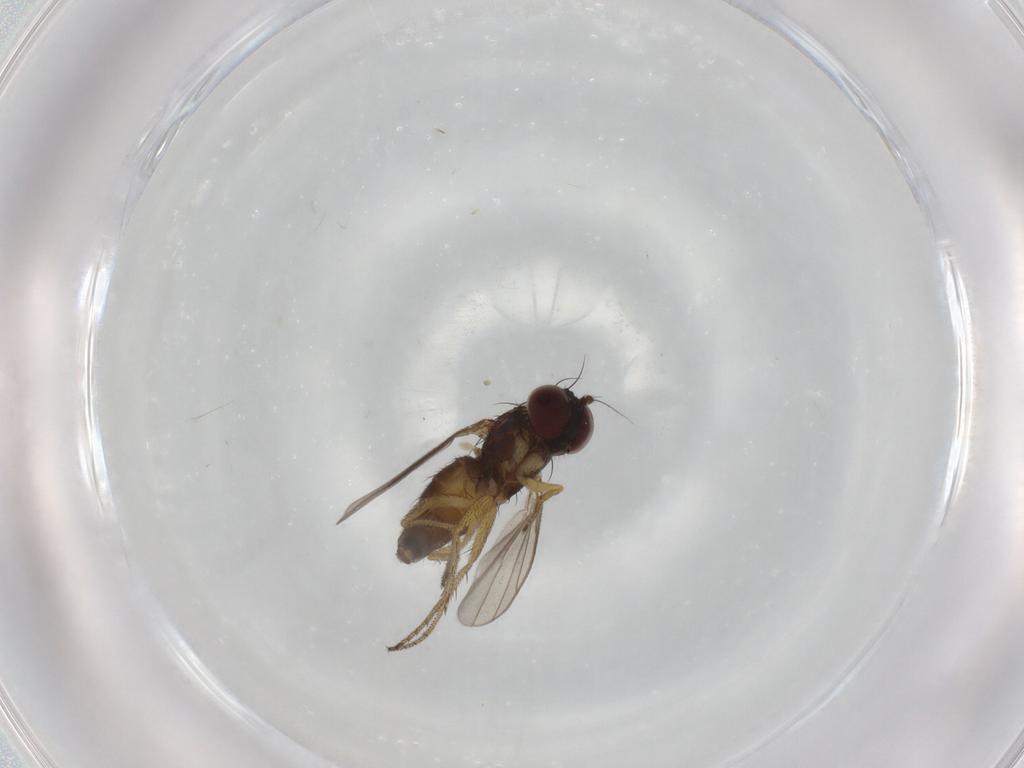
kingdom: Animalia
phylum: Arthropoda
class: Insecta
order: Diptera
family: Dolichopodidae
